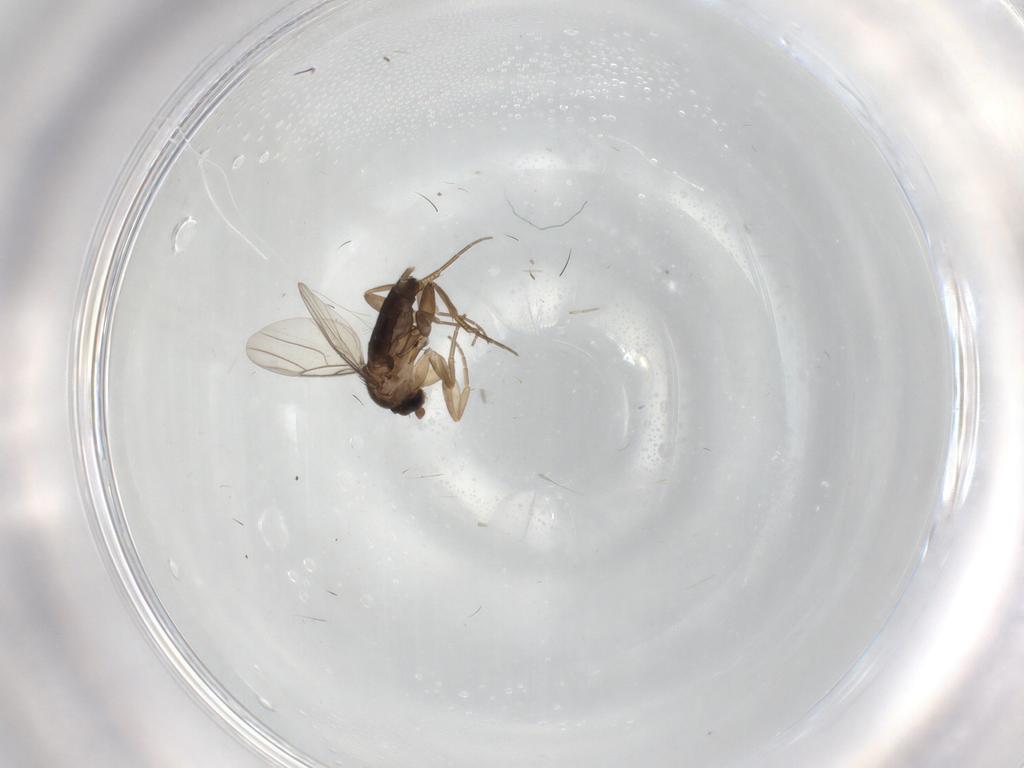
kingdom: Animalia
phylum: Arthropoda
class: Insecta
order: Diptera
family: Phoridae
